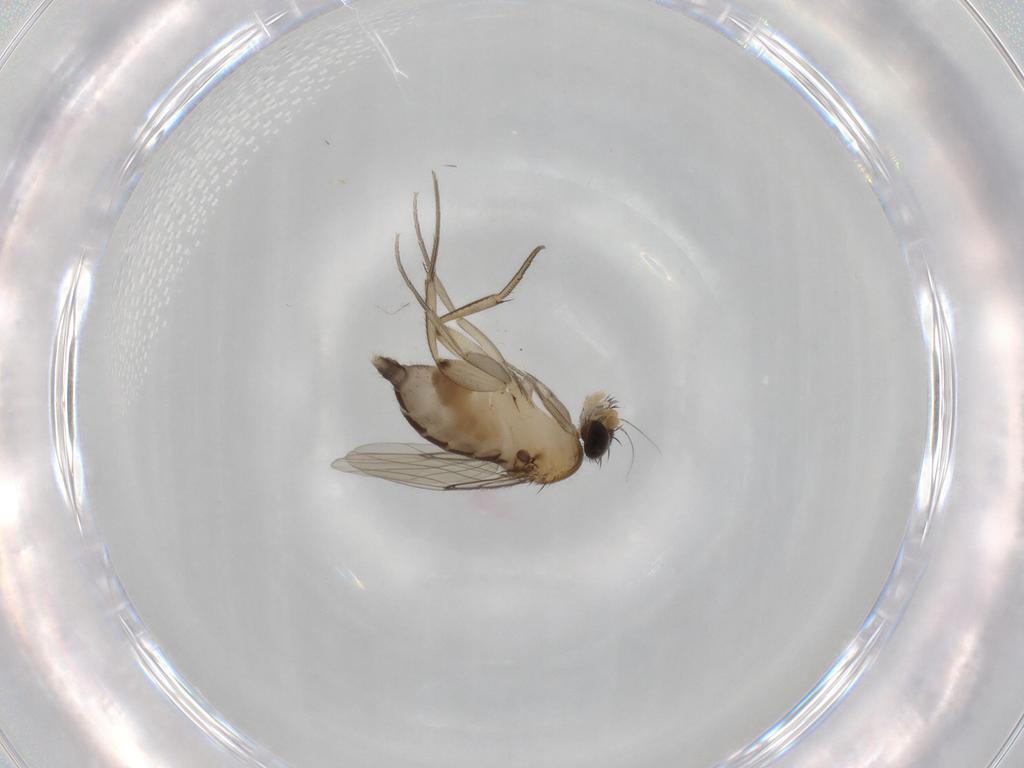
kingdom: Animalia
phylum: Arthropoda
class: Insecta
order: Diptera
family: Phoridae
